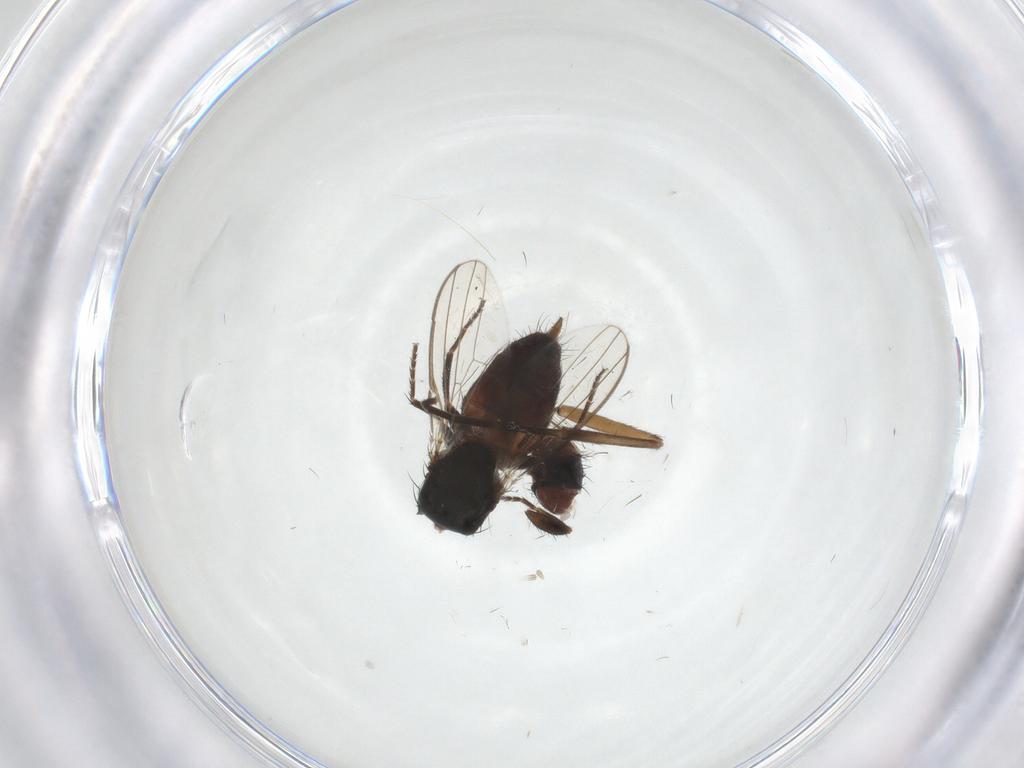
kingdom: Animalia
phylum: Arthropoda
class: Insecta
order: Diptera
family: Milichiidae
